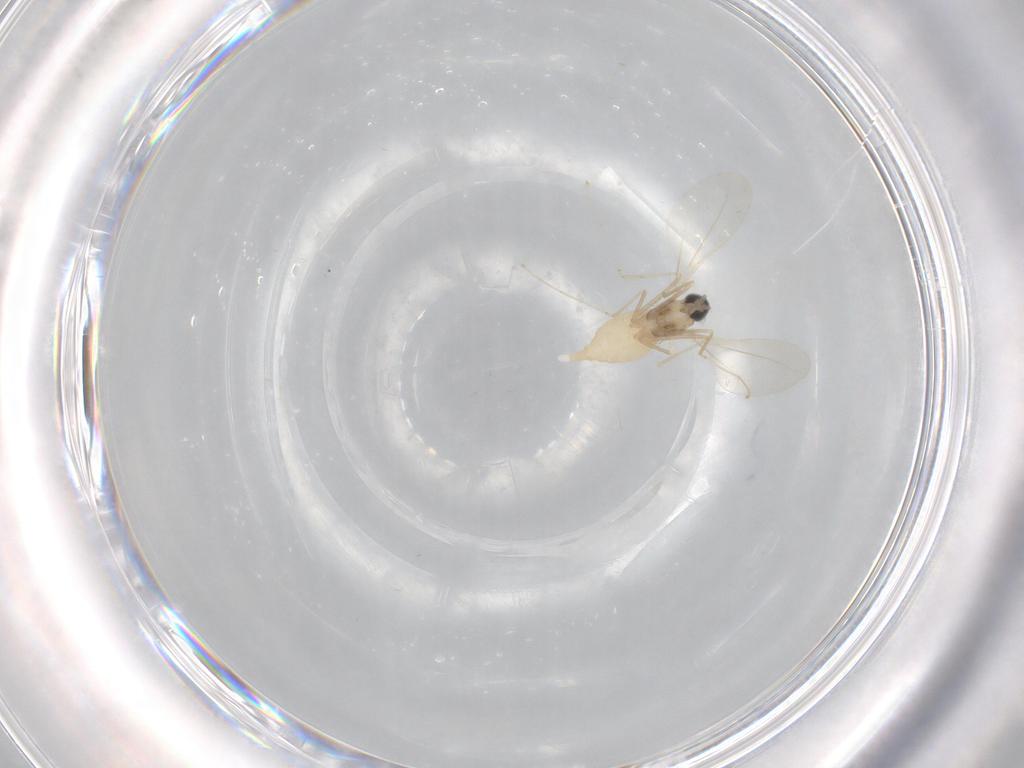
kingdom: Animalia
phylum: Arthropoda
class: Insecta
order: Diptera
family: Cecidomyiidae
